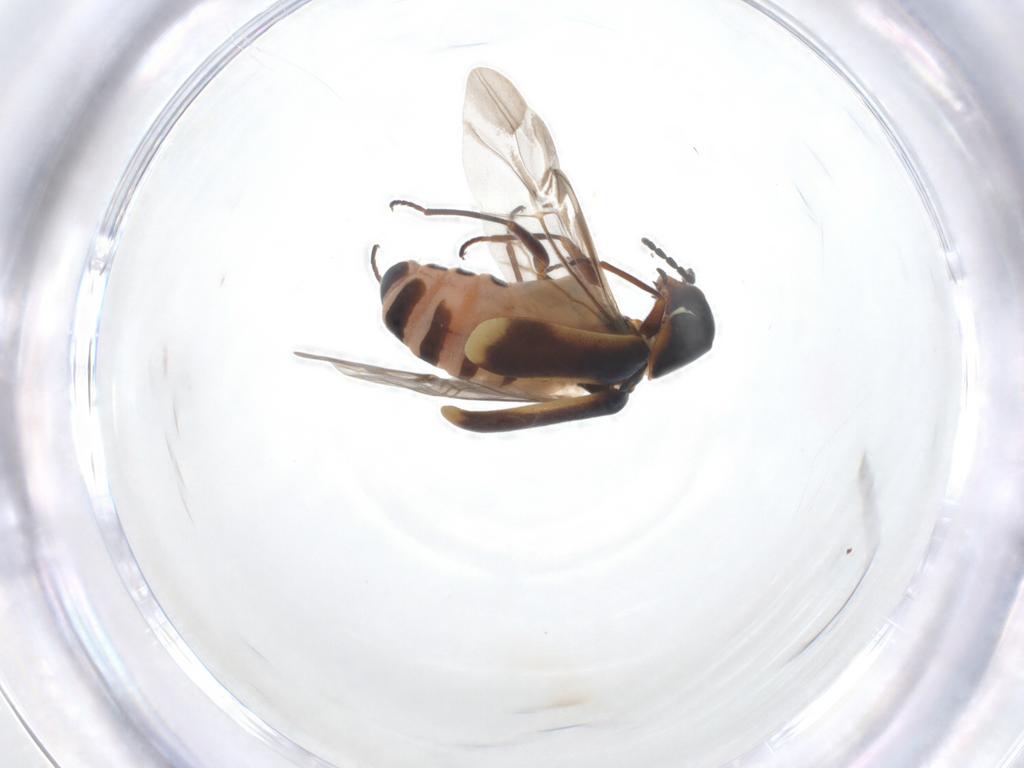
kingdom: Animalia
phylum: Arthropoda
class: Insecta
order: Coleoptera
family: Melyridae
